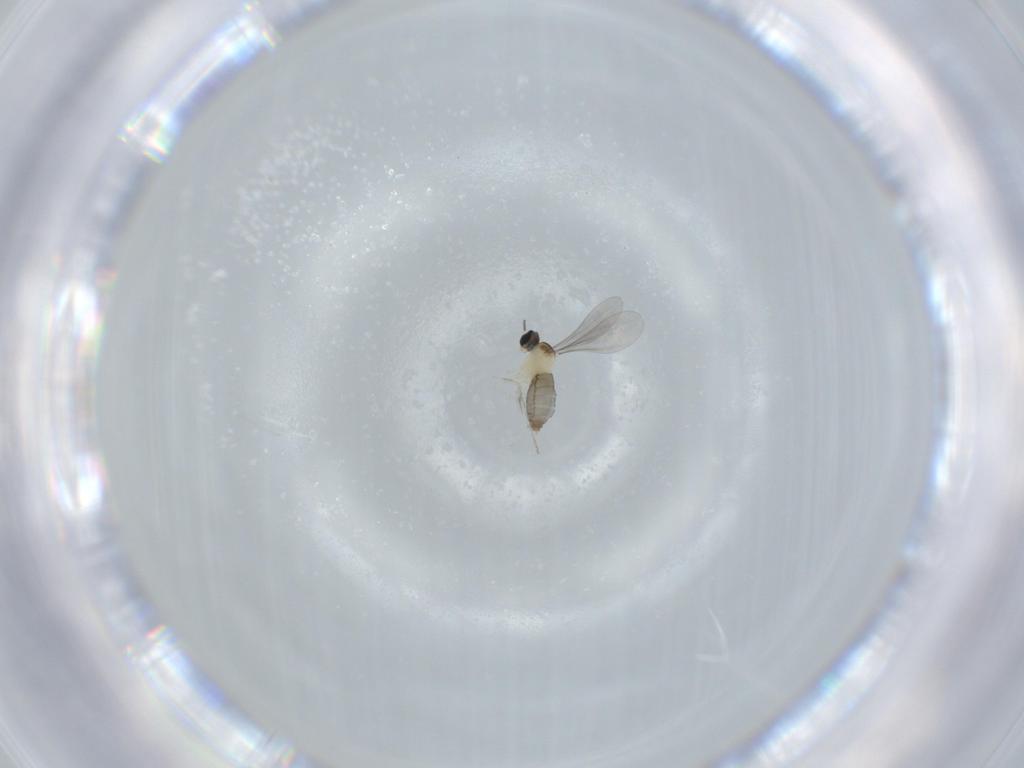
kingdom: Animalia
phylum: Arthropoda
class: Insecta
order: Diptera
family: Cecidomyiidae
